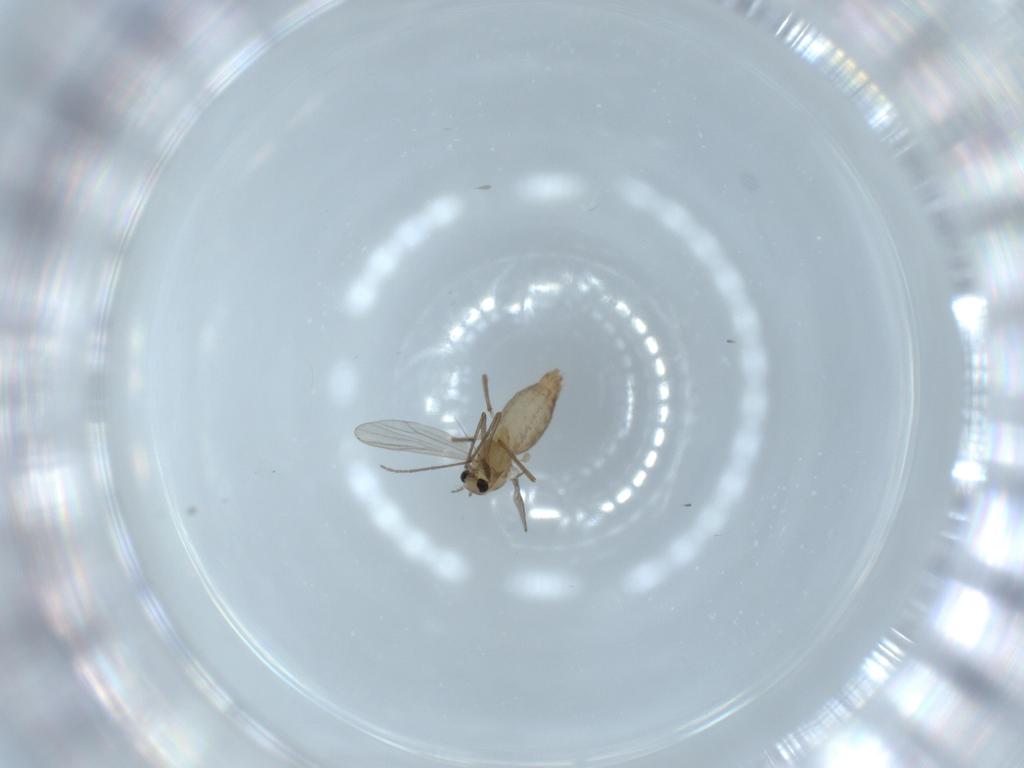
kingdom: Animalia
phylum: Arthropoda
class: Insecta
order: Diptera
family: Chironomidae
